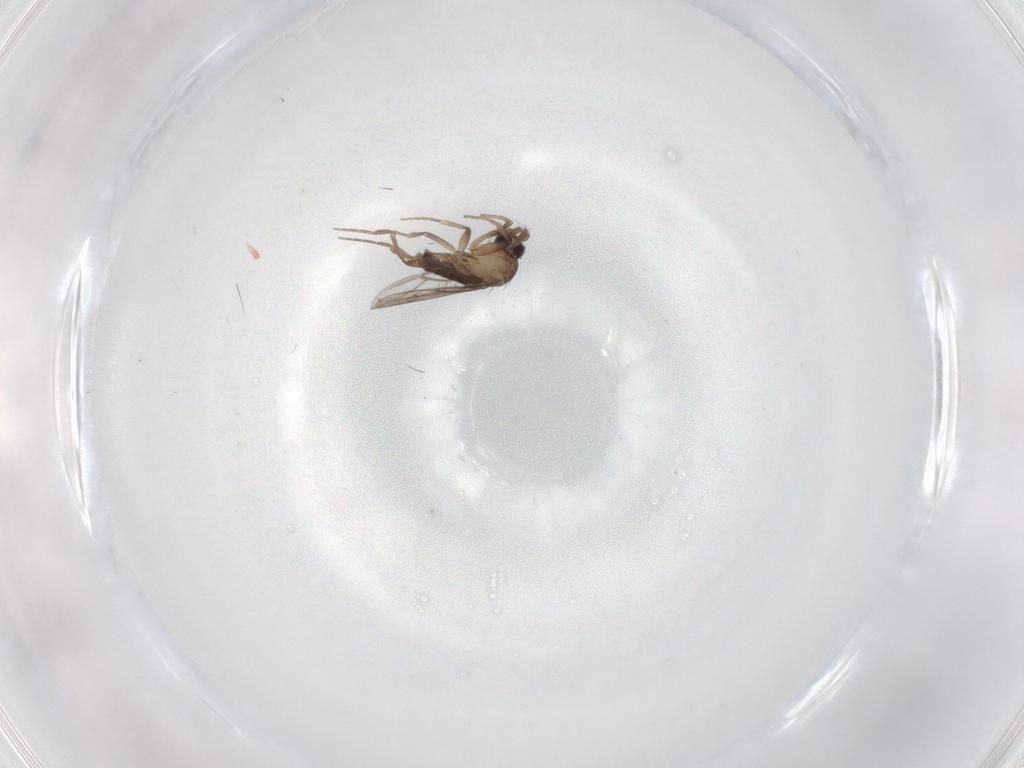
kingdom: Animalia
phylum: Arthropoda
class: Insecta
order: Diptera
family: Phoridae
